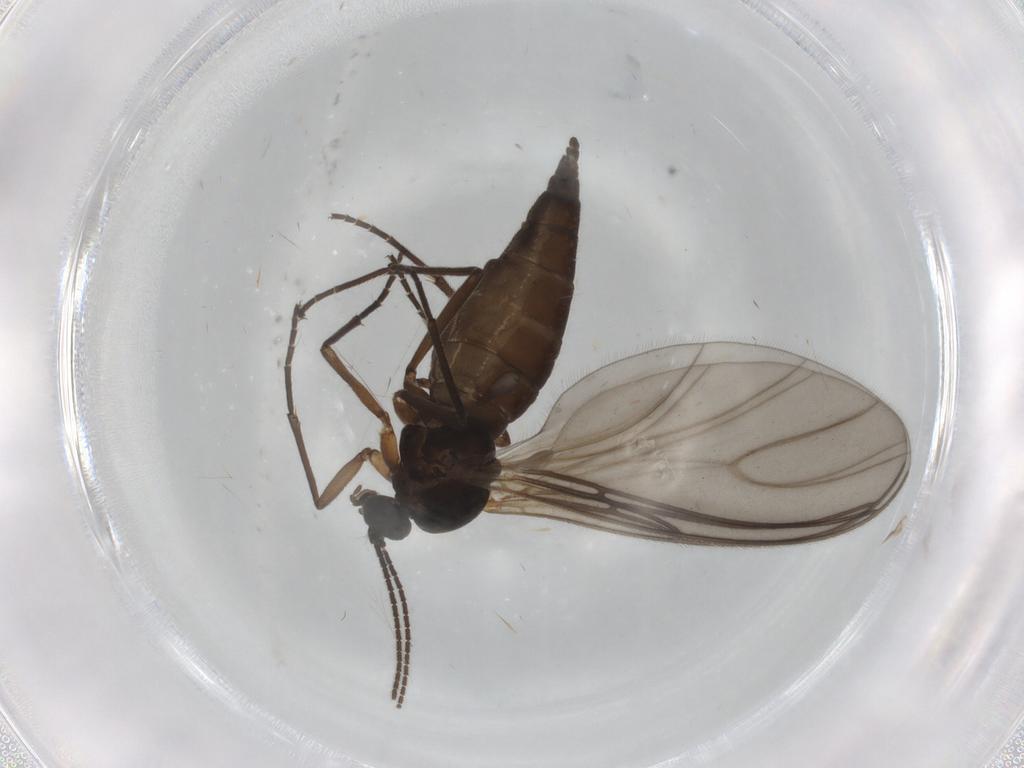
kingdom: Animalia
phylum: Arthropoda
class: Insecta
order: Diptera
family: Sciaridae
